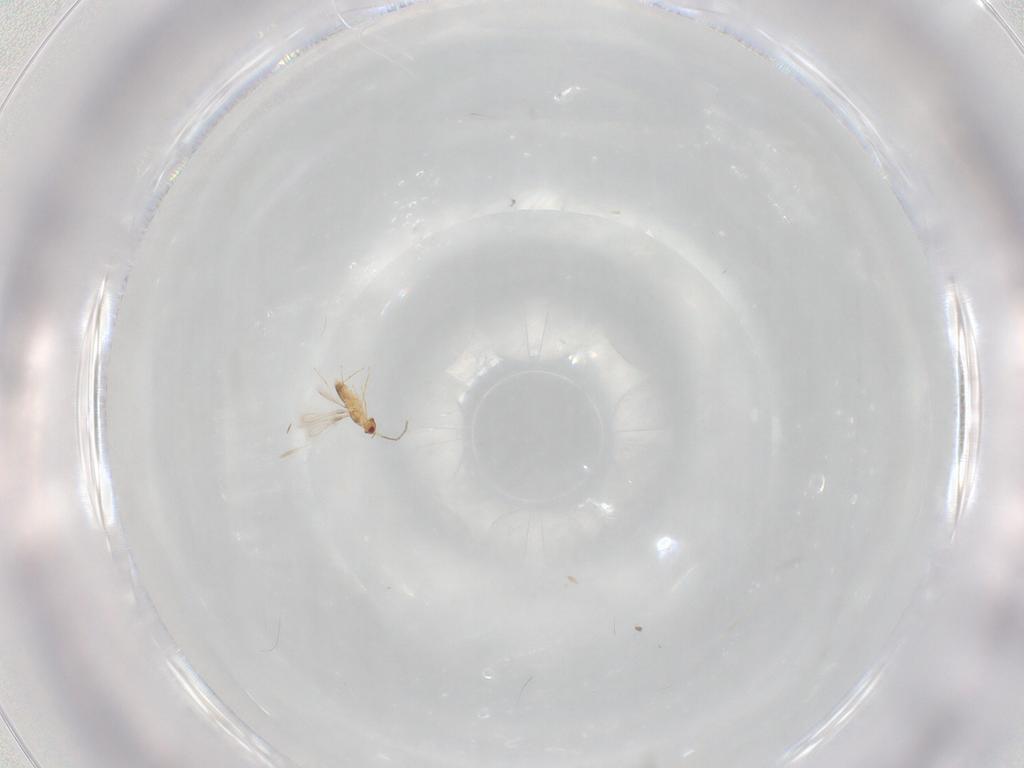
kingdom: Animalia
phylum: Arthropoda
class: Insecta
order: Hymenoptera
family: Mymaridae
